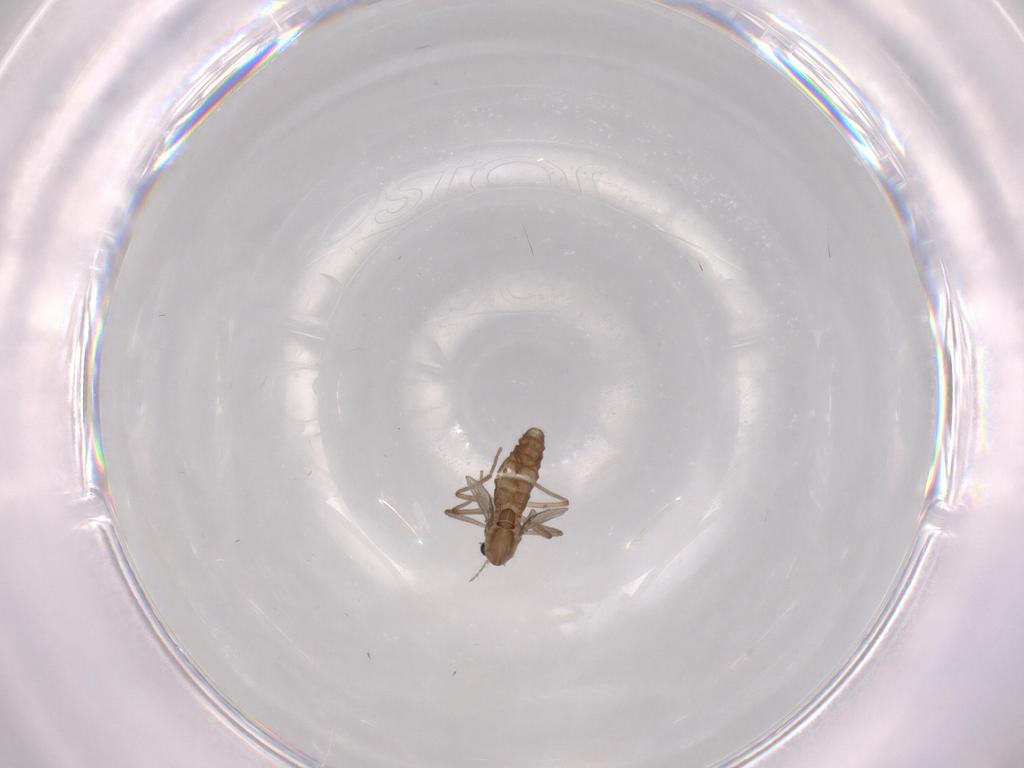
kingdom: Animalia
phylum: Arthropoda
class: Insecta
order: Diptera
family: Chironomidae
